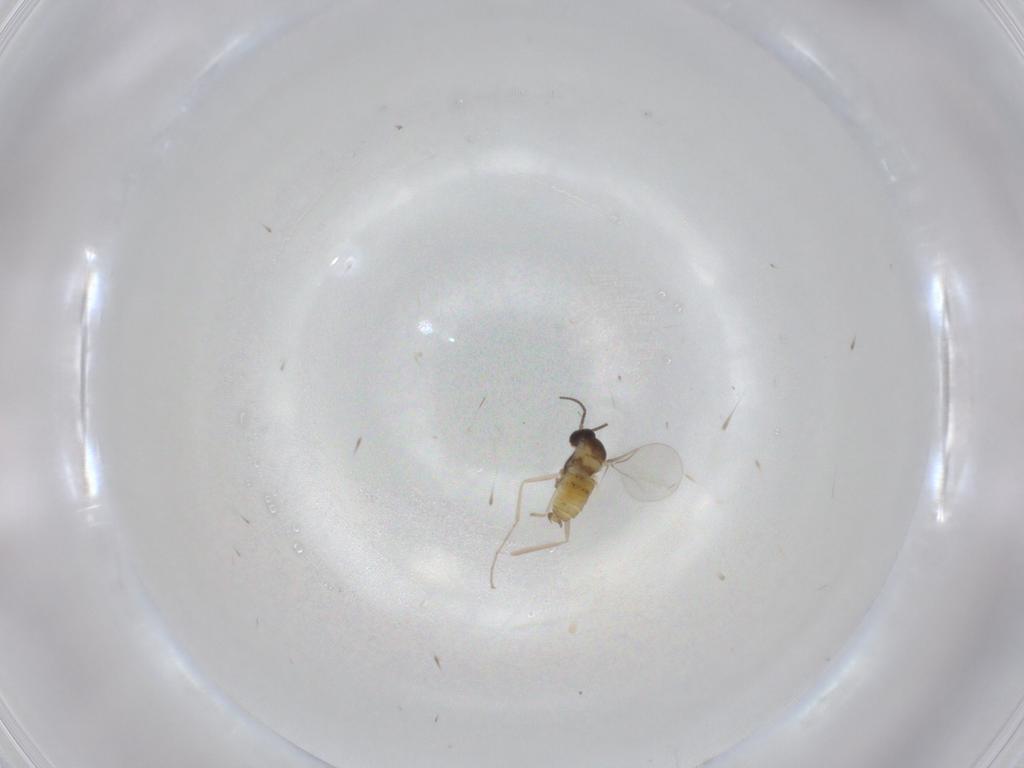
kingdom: Animalia
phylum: Arthropoda
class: Insecta
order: Diptera
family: Cecidomyiidae
